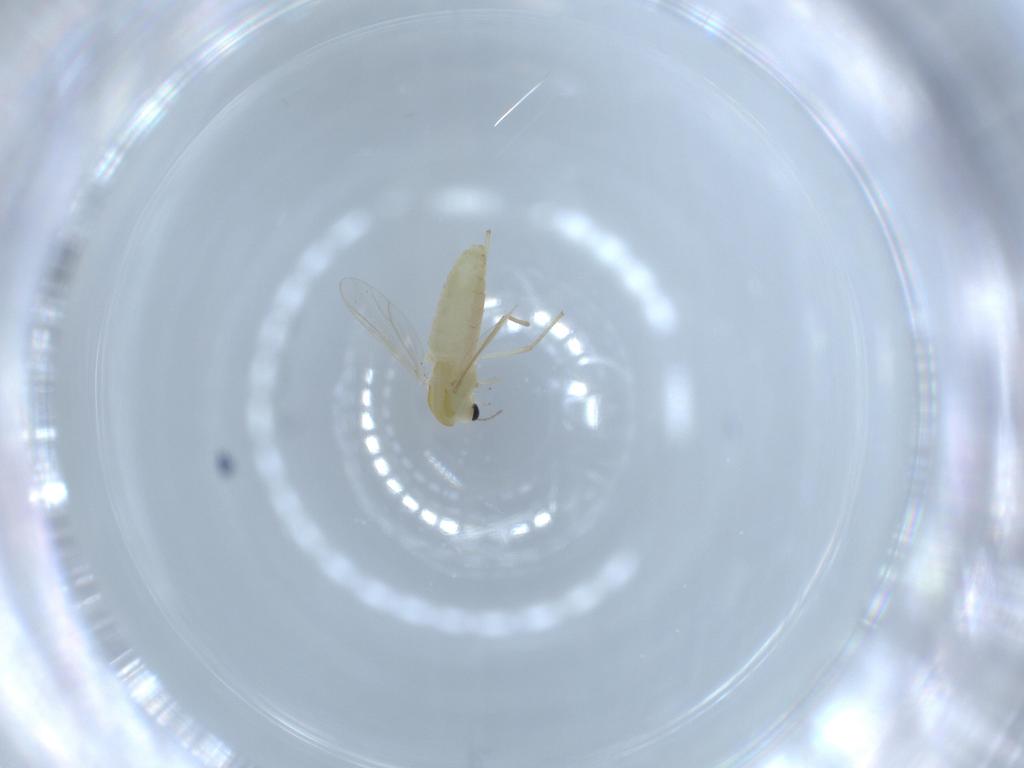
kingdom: Animalia
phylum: Arthropoda
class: Insecta
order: Diptera
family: Chironomidae
